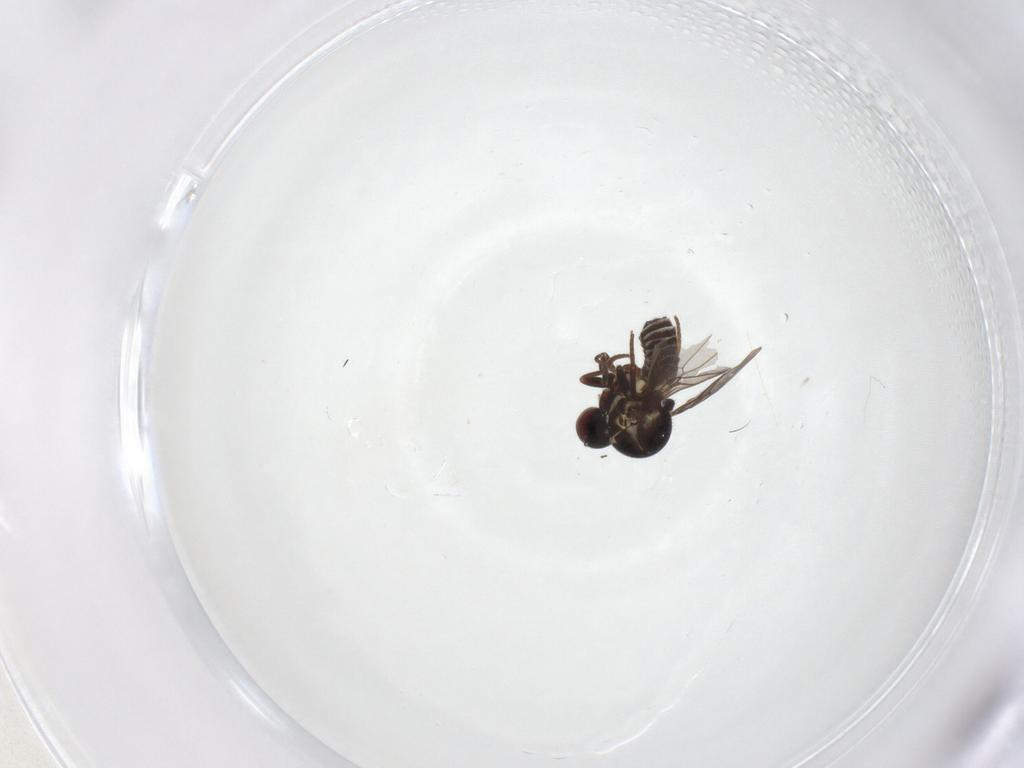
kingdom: Animalia
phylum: Arthropoda
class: Insecta
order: Diptera
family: Mythicomyiidae
